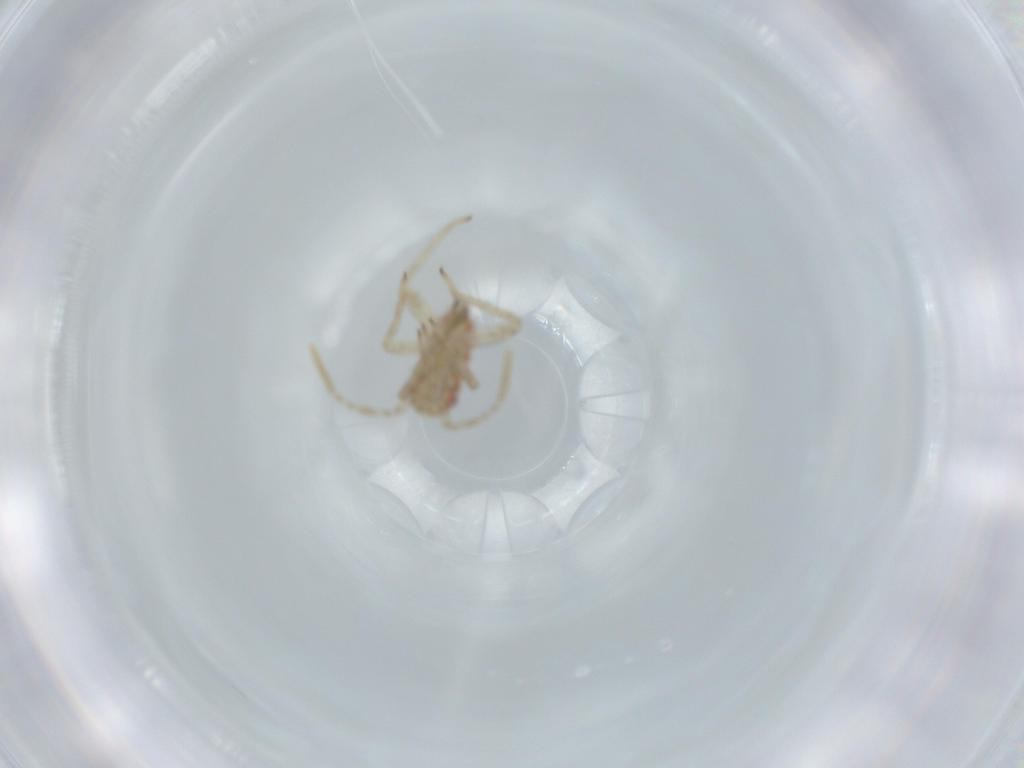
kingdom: Animalia
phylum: Arthropoda
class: Insecta
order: Hemiptera
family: Miridae
